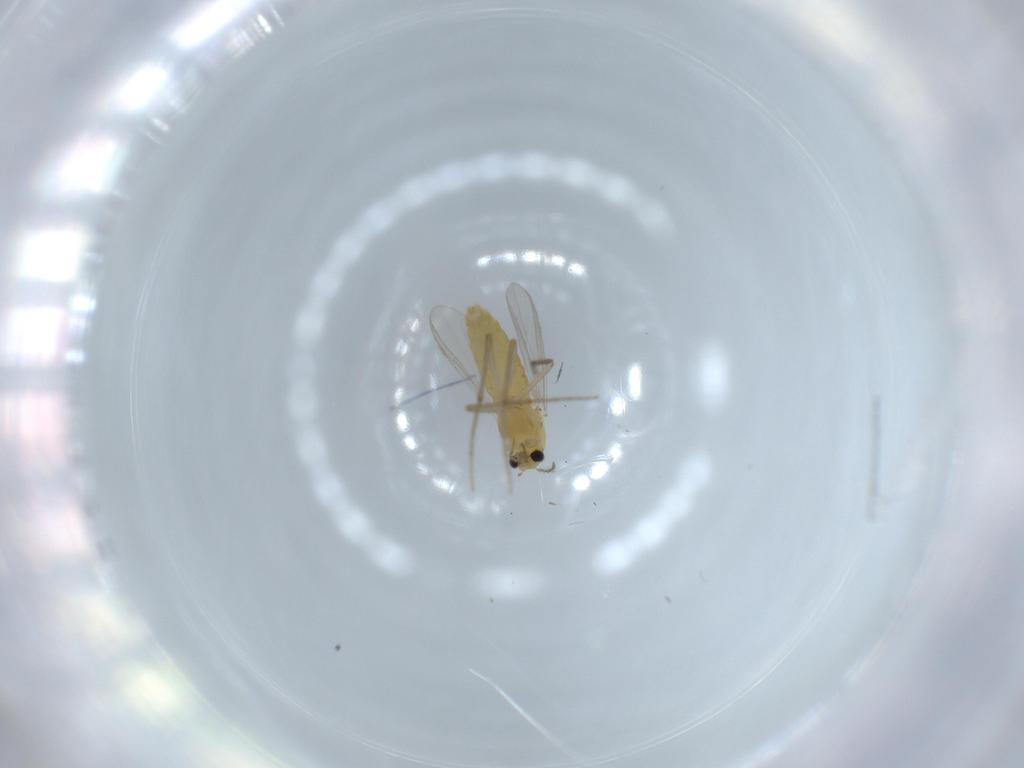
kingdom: Animalia
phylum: Arthropoda
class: Insecta
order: Diptera
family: Chironomidae
